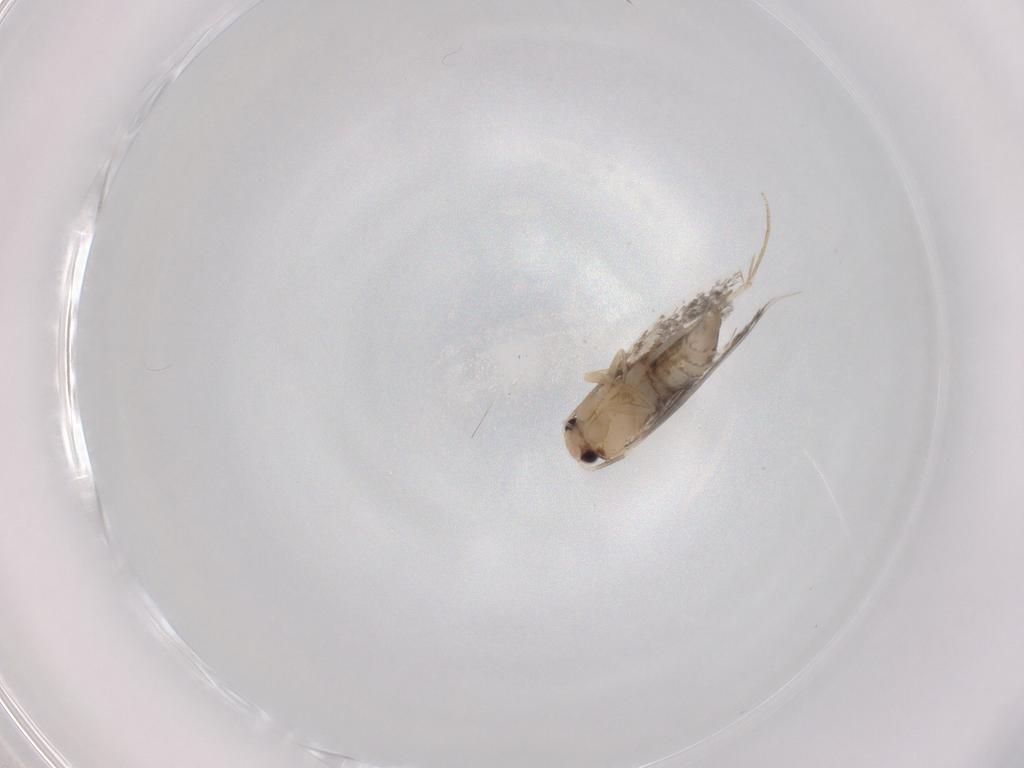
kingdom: Animalia
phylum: Arthropoda
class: Insecta
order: Lepidoptera
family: Tineidae
